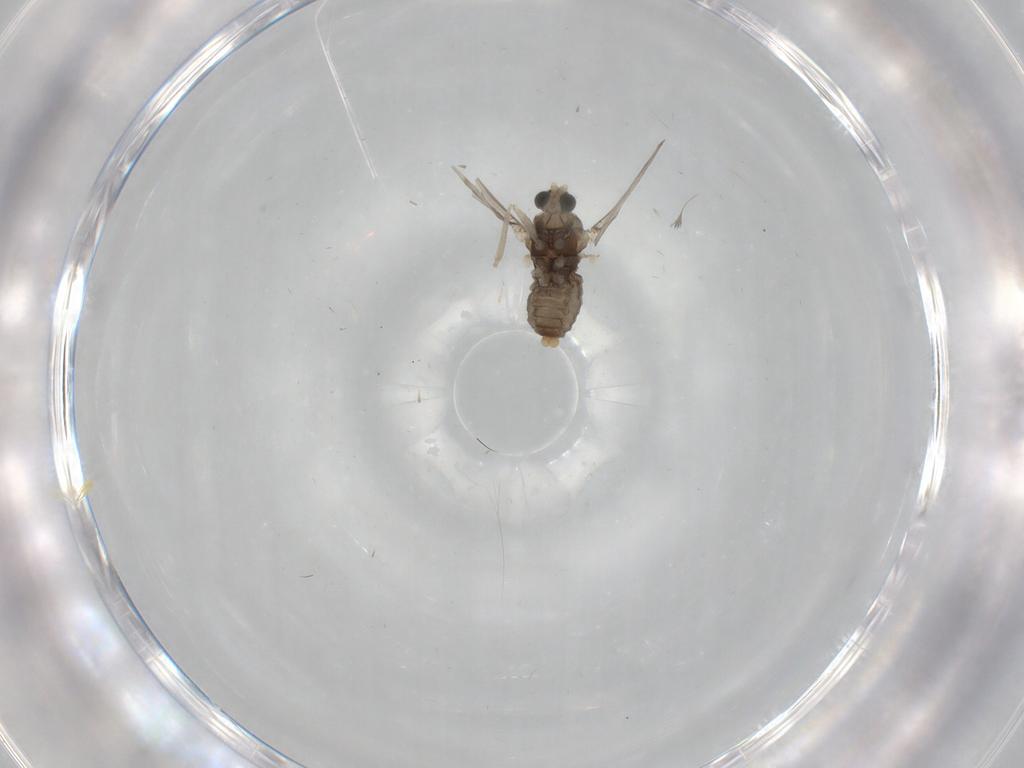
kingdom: Animalia
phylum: Arthropoda
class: Insecta
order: Diptera
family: Cecidomyiidae
